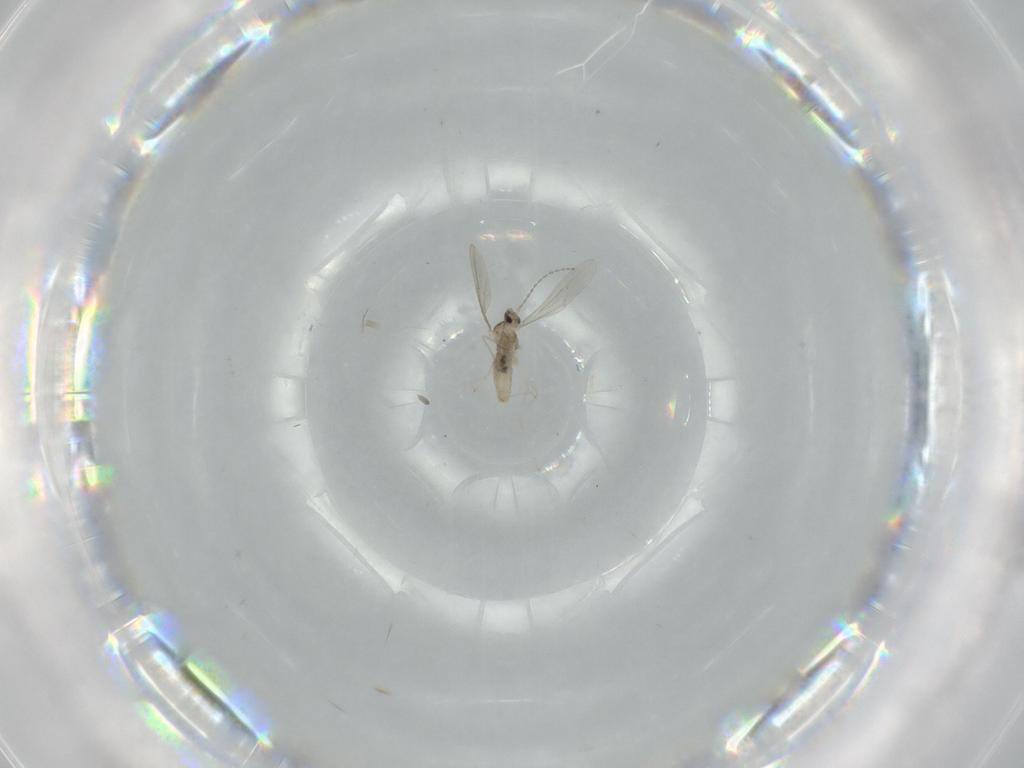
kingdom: Animalia
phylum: Arthropoda
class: Insecta
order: Diptera
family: Cecidomyiidae
